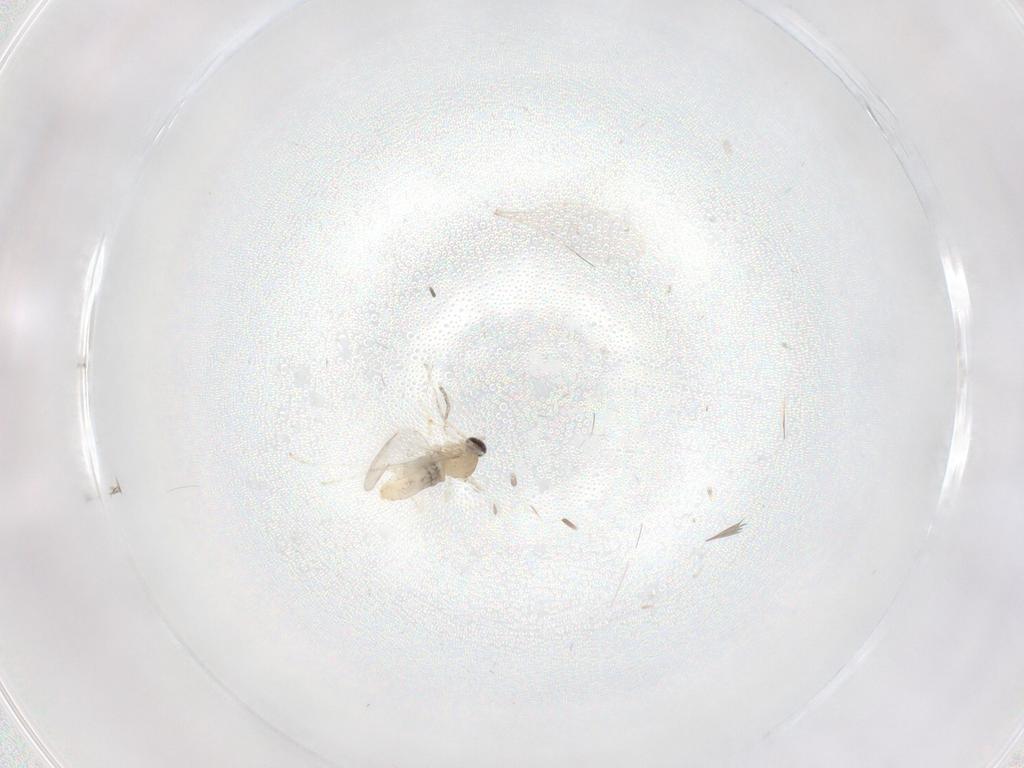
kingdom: Animalia
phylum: Arthropoda
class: Insecta
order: Diptera
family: Cecidomyiidae
